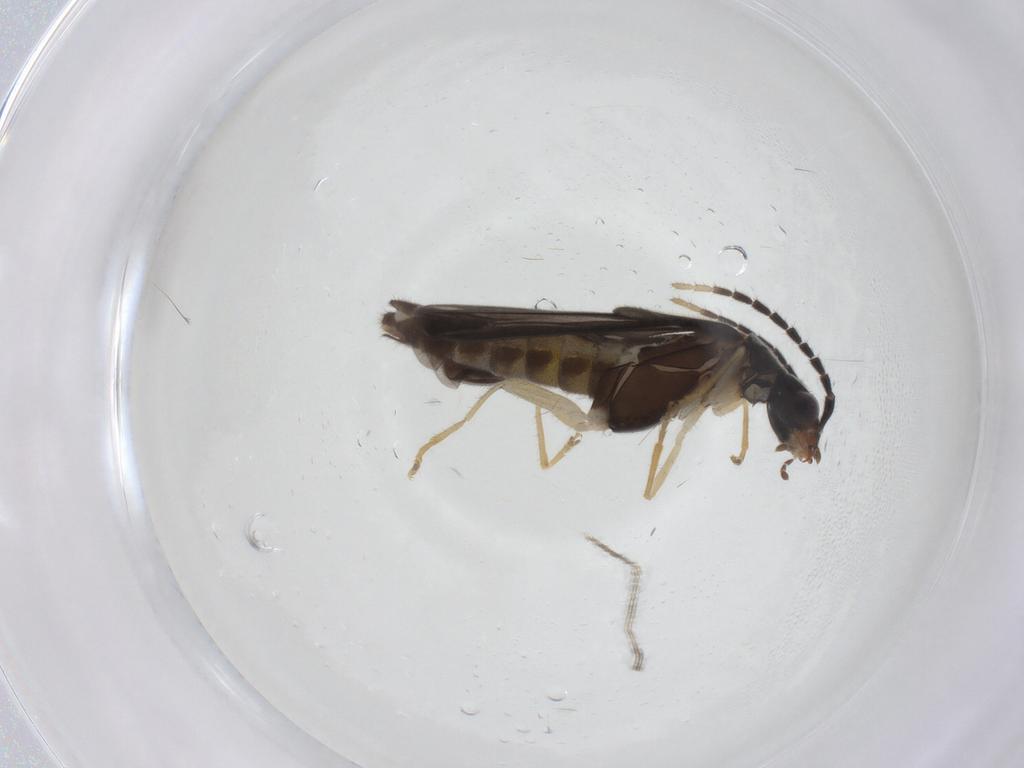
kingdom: Animalia
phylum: Arthropoda
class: Insecta
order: Coleoptera
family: Cantharidae
